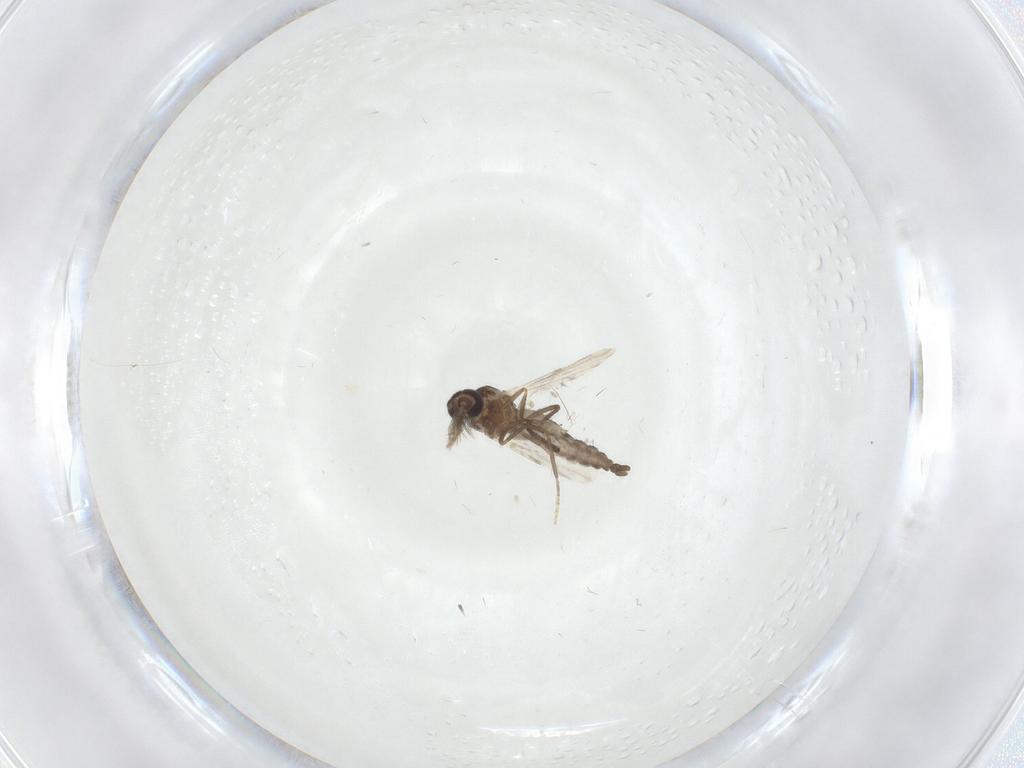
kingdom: Animalia
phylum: Arthropoda
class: Insecta
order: Diptera
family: Ceratopogonidae
